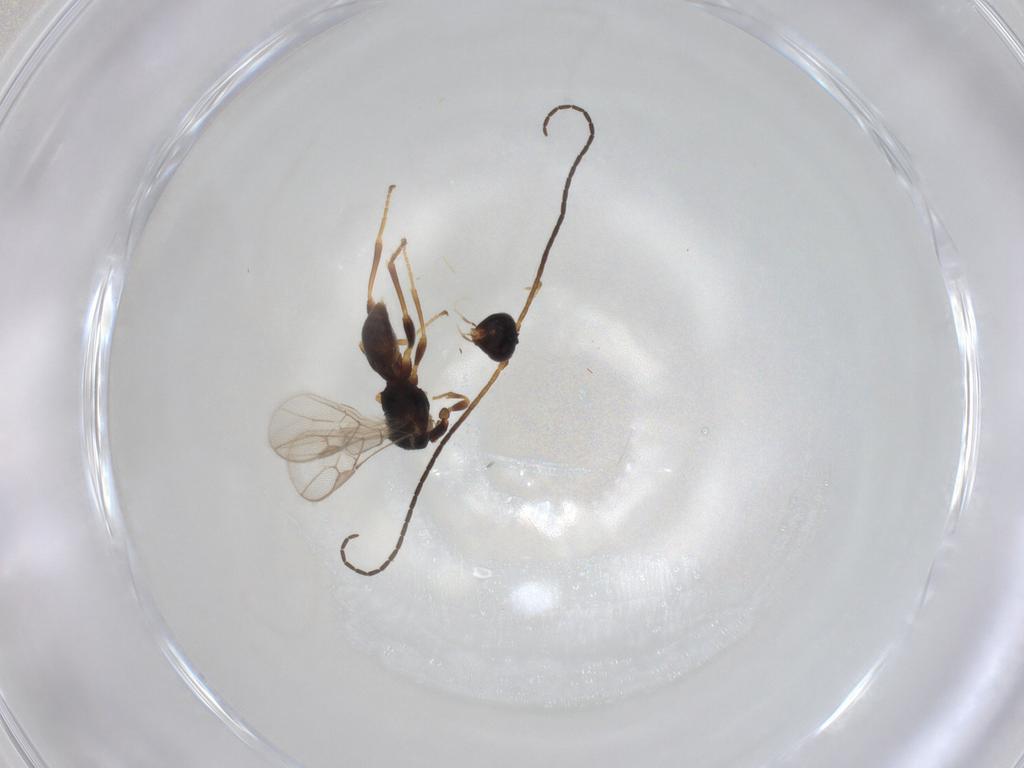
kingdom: Animalia
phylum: Arthropoda
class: Insecta
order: Hymenoptera
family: Braconidae
